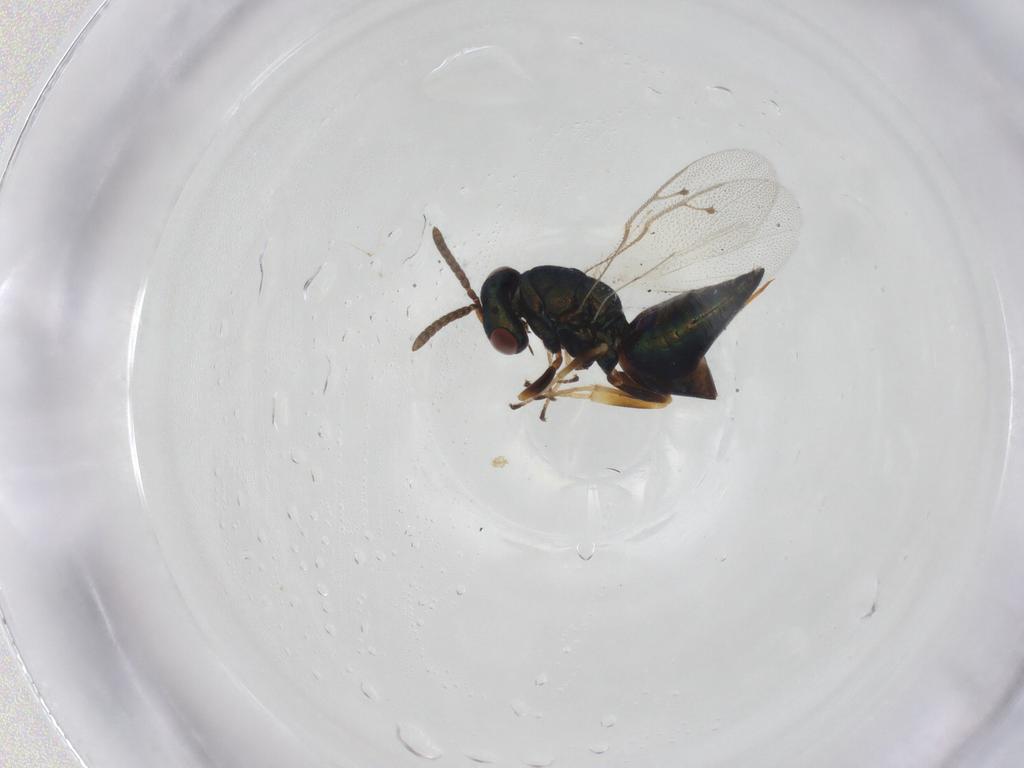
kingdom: Animalia
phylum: Arthropoda
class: Insecta
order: Hymenoptera
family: Pteromalidae
